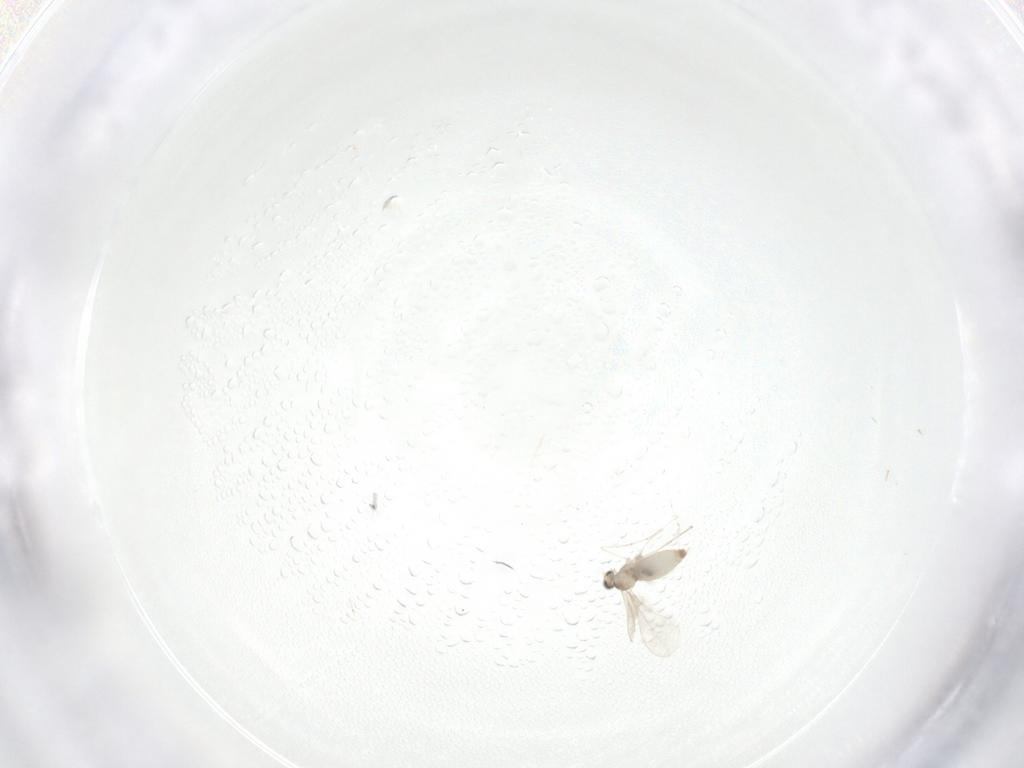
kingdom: Animalia
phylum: Arthropoda
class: Insecta
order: Diptera
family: Cecidomyiidae
